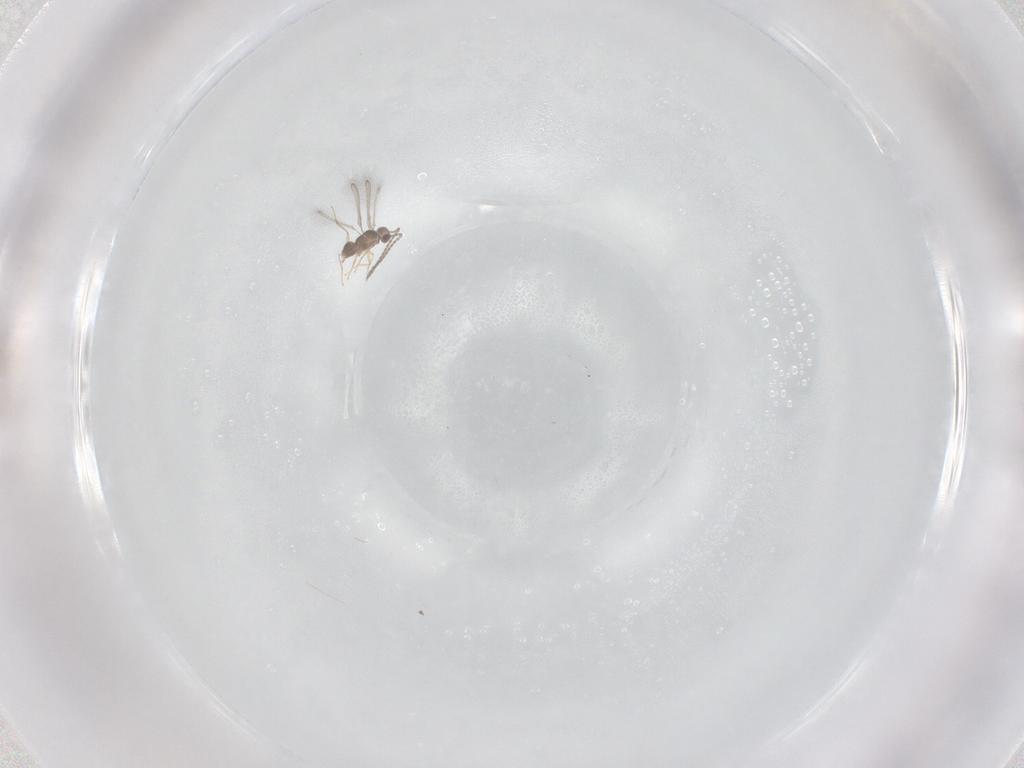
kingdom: Animalia
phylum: Arthropoda
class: Insecta
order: Hymenoptera
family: Mymaridae
